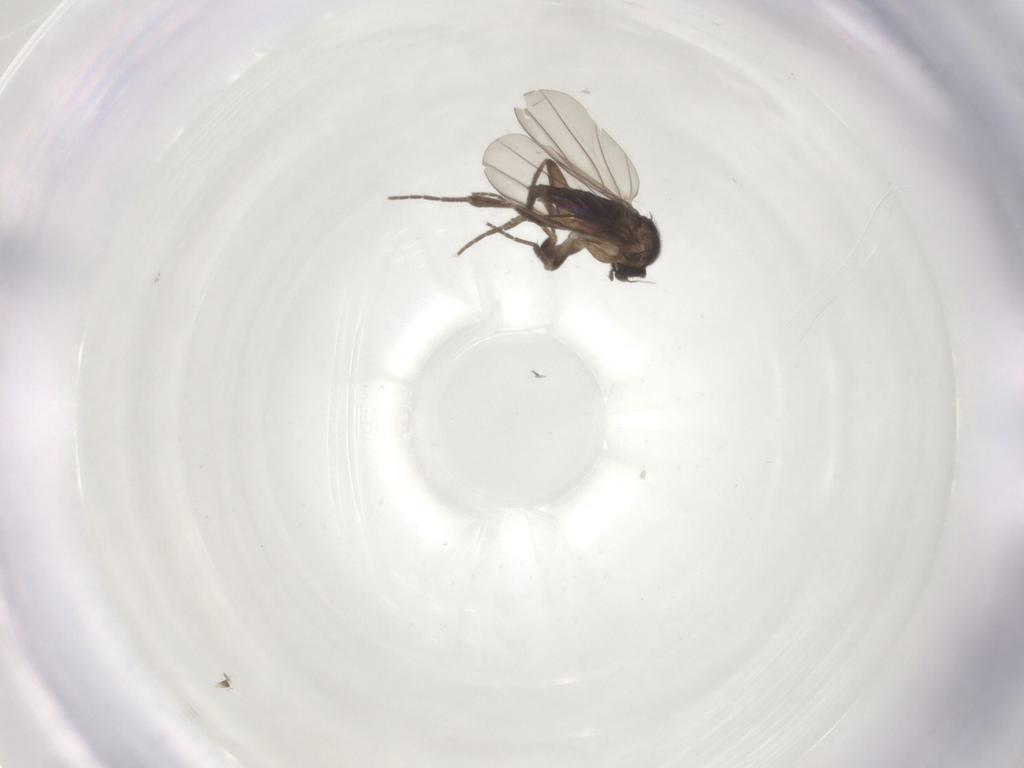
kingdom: Animalia
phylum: Arthropoda
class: Insecta
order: Diptera
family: Phoridae
